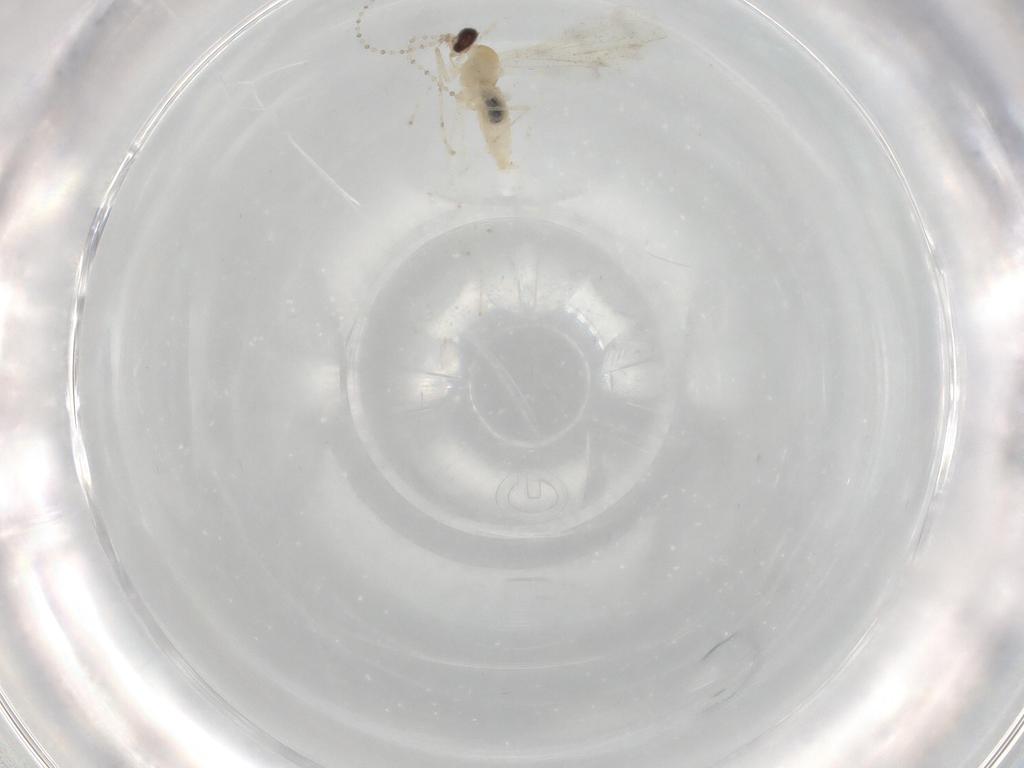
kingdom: Animalia
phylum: Arthropoda
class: Insecta
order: Diptera
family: Cecidomyiidae
